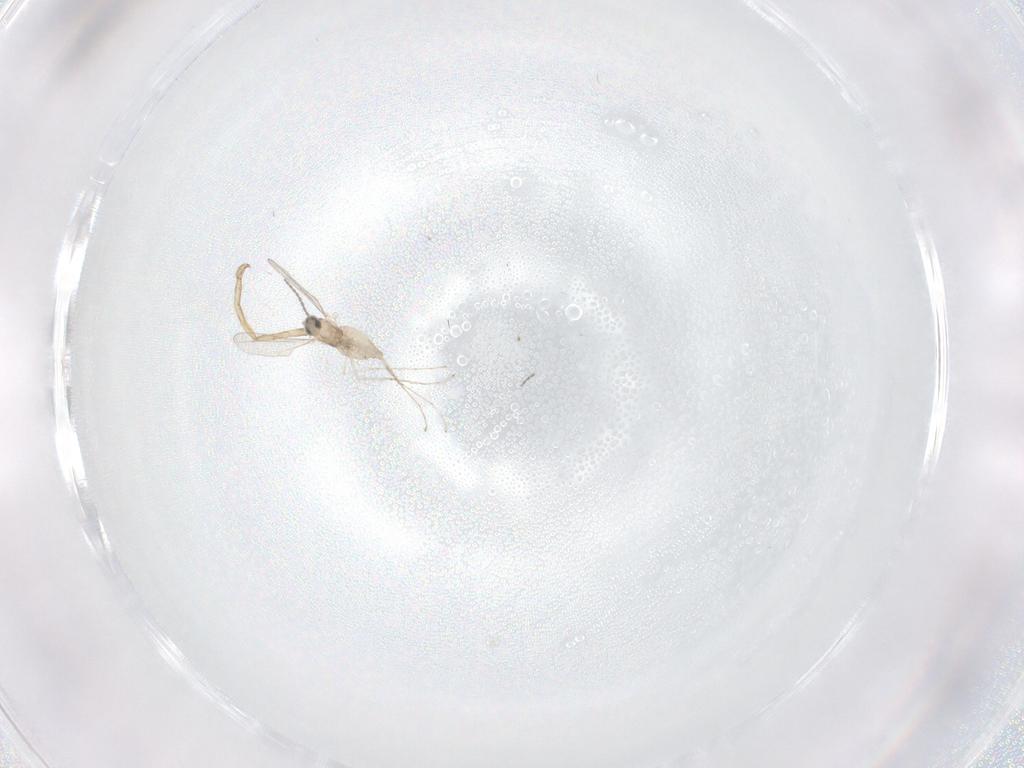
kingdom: Animalia
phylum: Arthropoda
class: Insecta
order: Diptera
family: Cecidomyiidae
